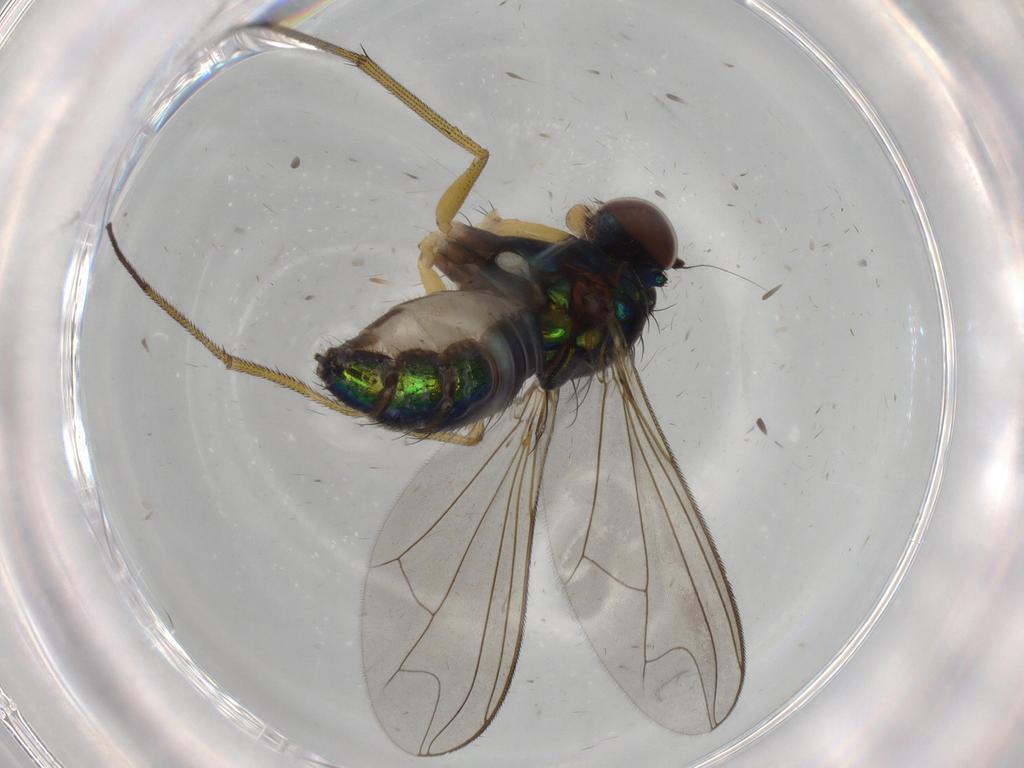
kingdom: Animalia
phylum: Arthropoda
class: Insecta
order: Diptera
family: Dolichopodidae
